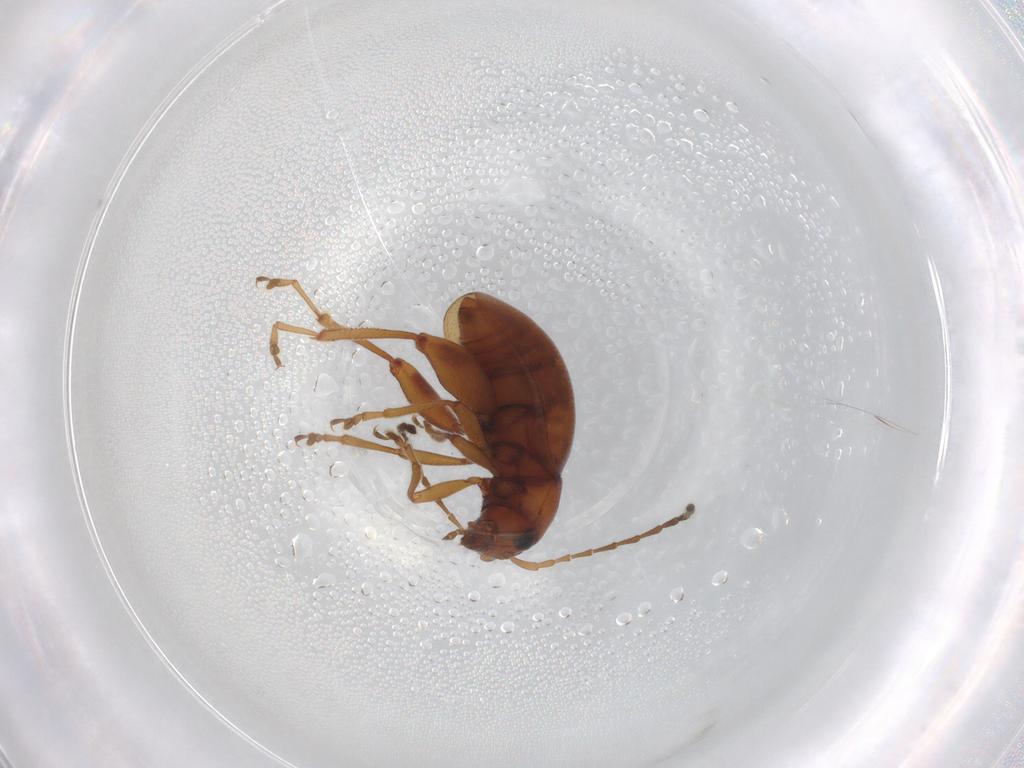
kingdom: Animalia
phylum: Arthropoda
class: Insecta
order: Coleoptera
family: Chrysomelidae
